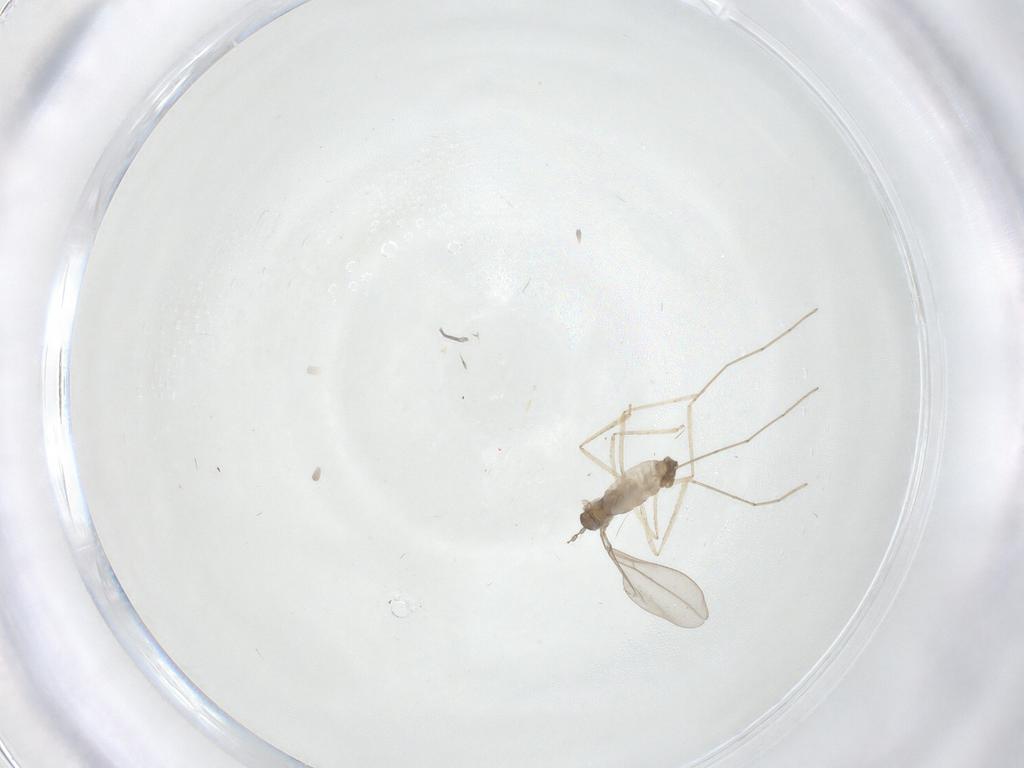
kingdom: Animalia
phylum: Arthropoda
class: Insecta
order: Diptera
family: Cecidomyiidae
